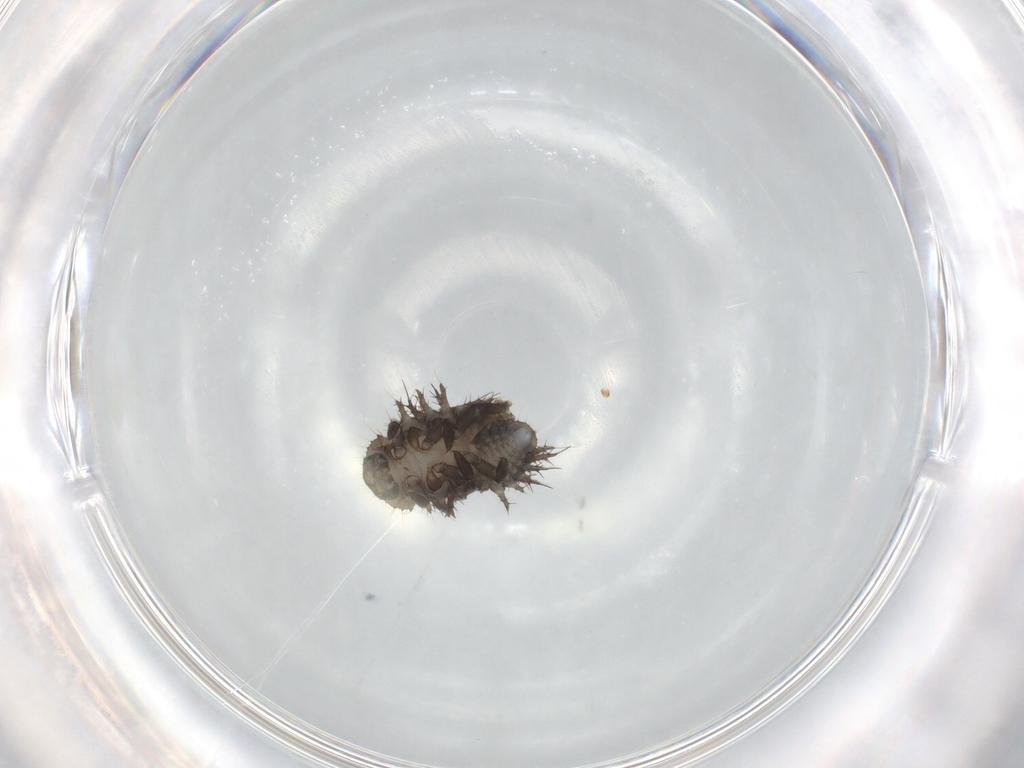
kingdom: Animalia
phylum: Arthropoda
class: Insecta
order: Coleoptera
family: Coccinellidae
